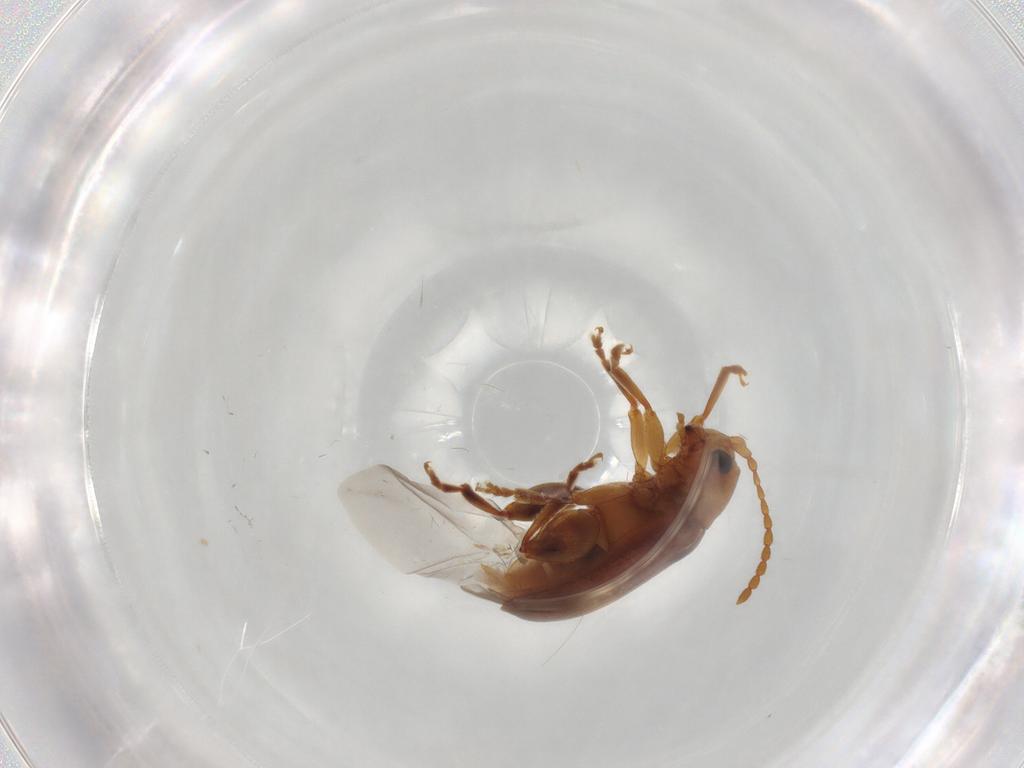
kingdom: Animalia
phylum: Arthropoda
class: Insecta
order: Coleoptera
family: Chrysomelidae
